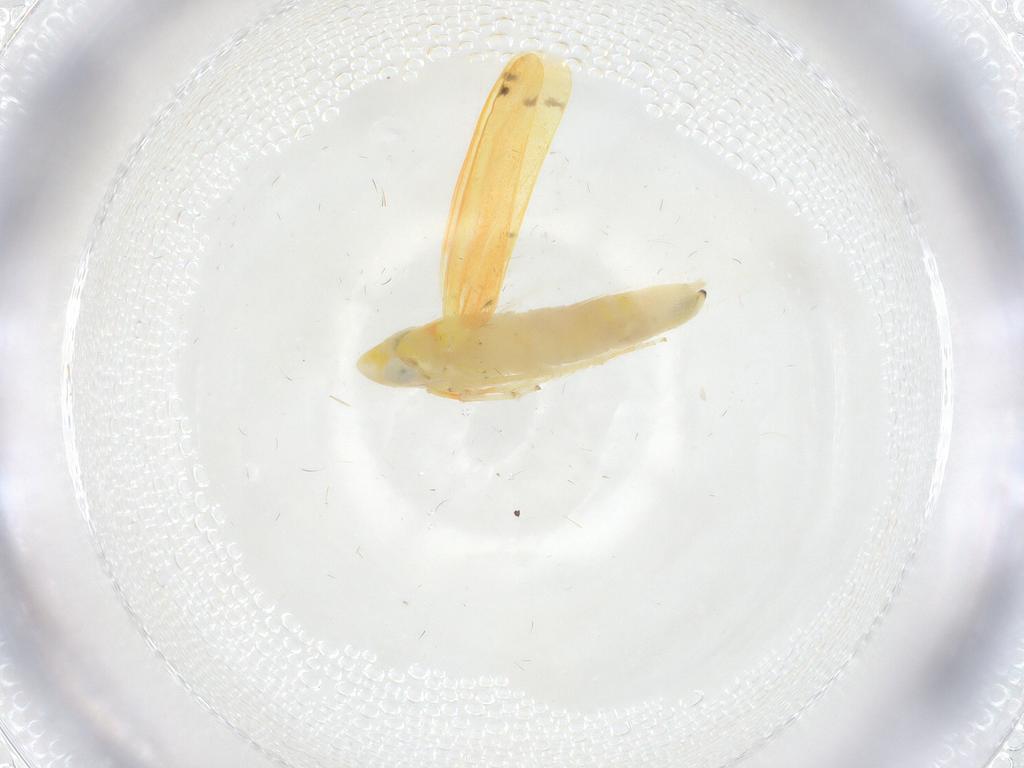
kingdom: Animalia
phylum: Arthropoda
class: Insecta
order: Hemiptera
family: Cicadellidae
